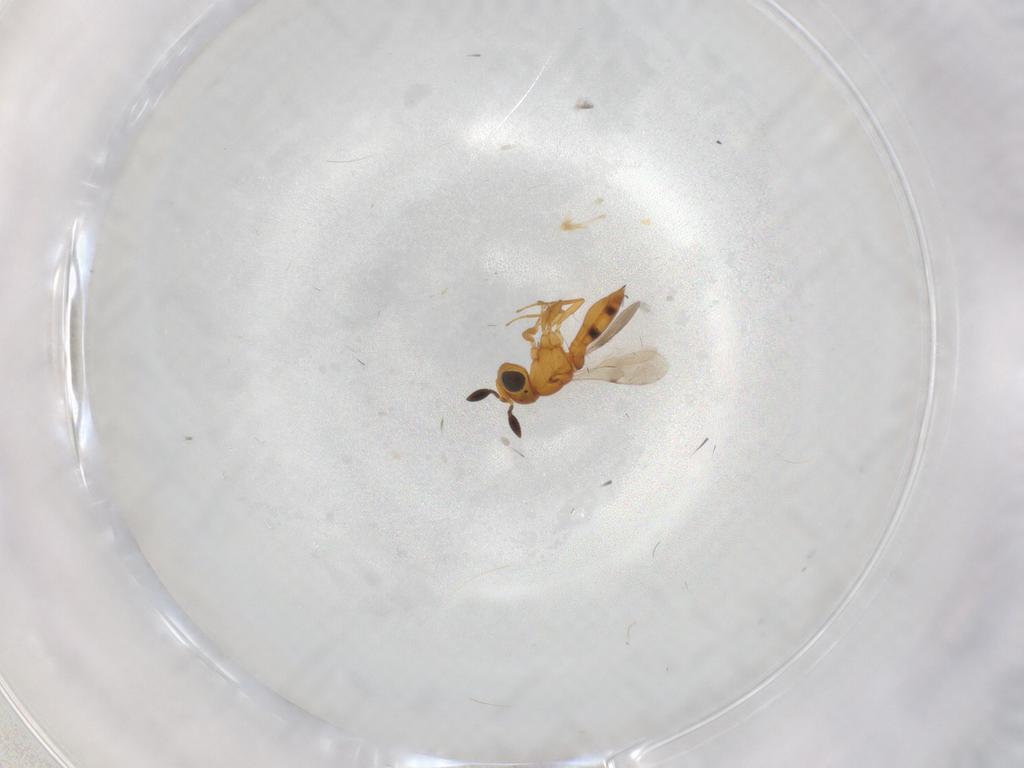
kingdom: Animalia
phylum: Arthropoda
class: Insecta
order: Hymenoptera
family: Scelionidae
